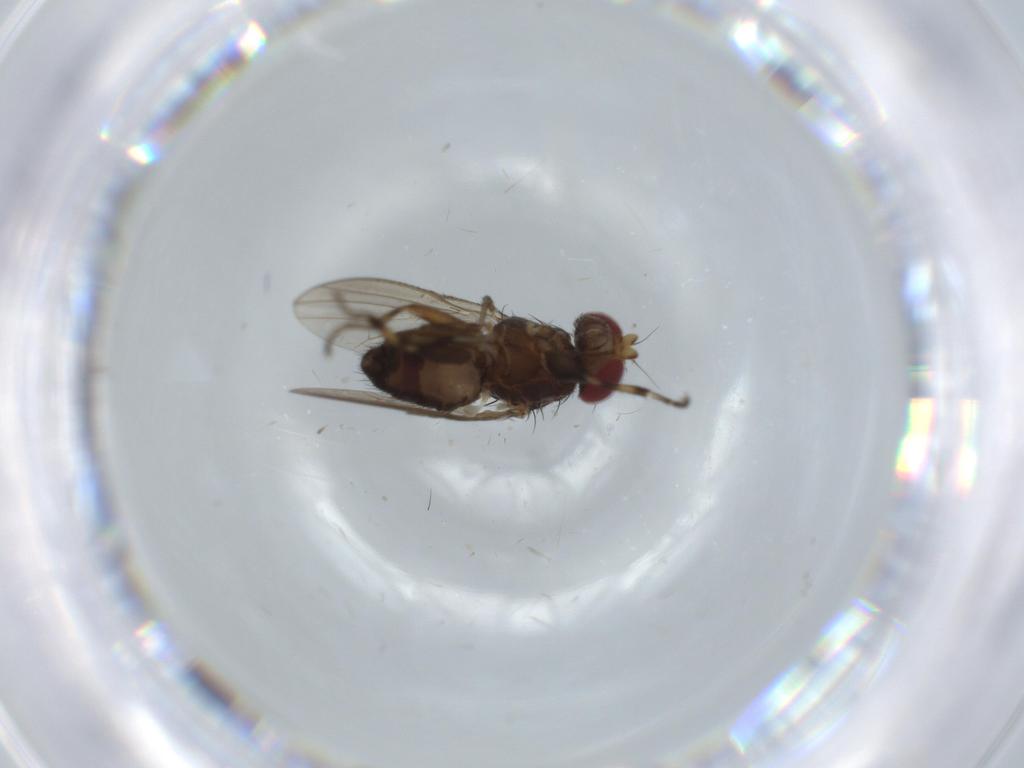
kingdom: Animalia
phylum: Arthropoda
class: Insecta
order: Diptera
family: Heleomyzidae
